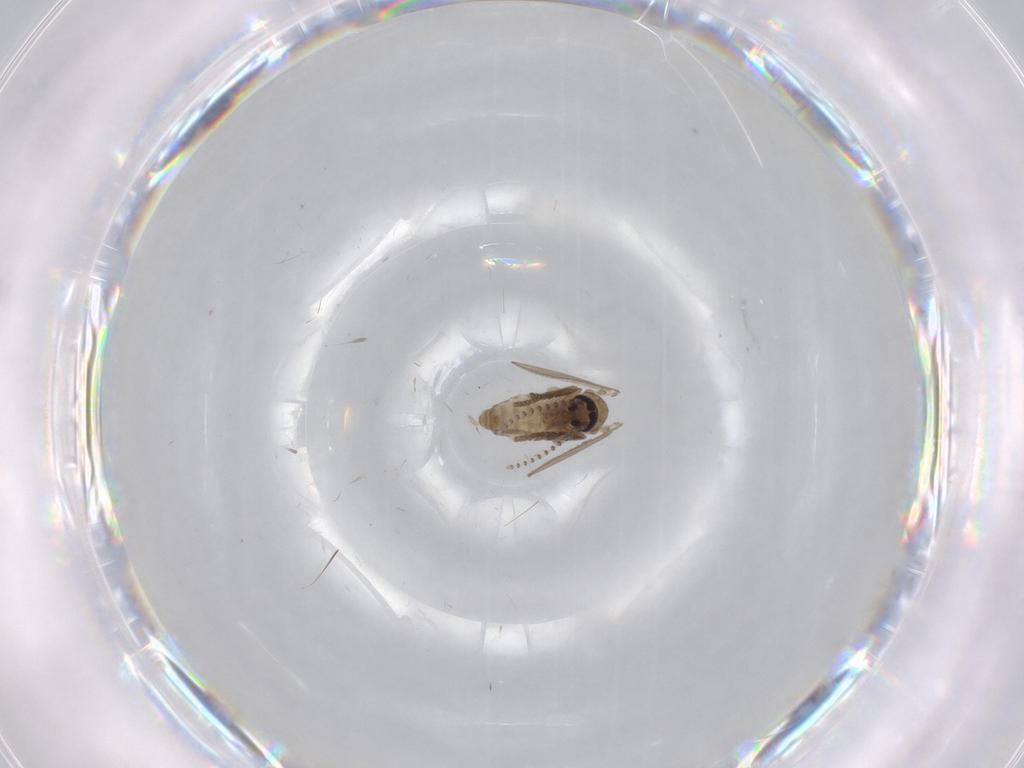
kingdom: Animalia
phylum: Arthropoda
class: Insecta
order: Diptera
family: Psychodidae
